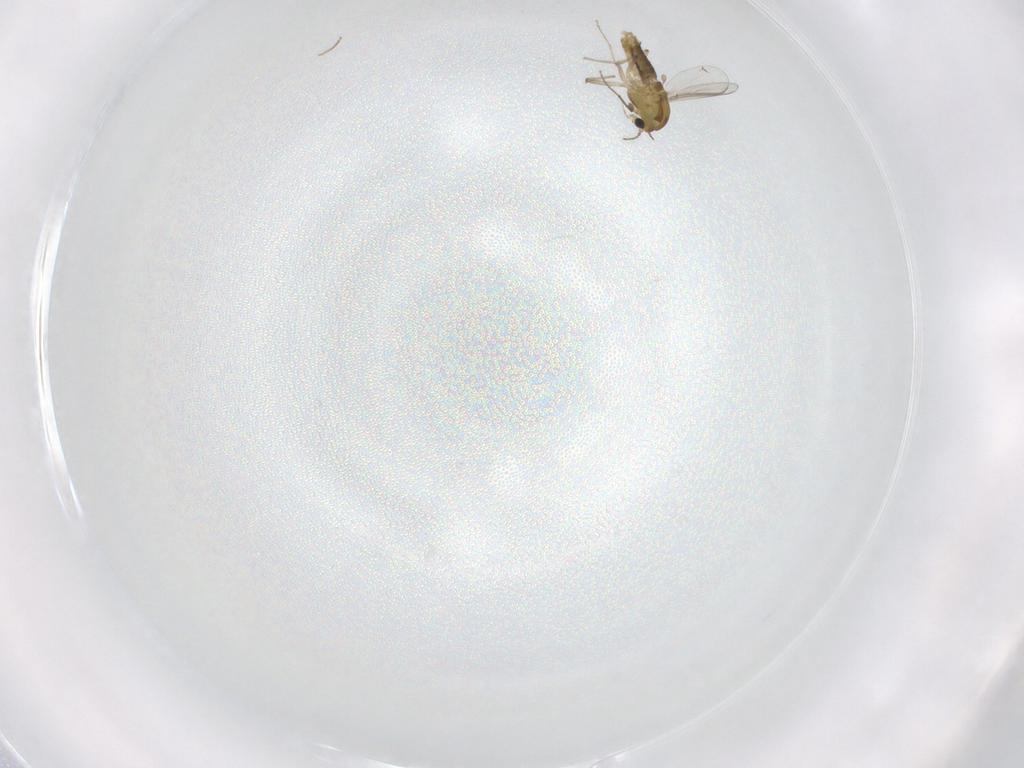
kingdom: Animalia
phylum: Arthropoda
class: Insecta
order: Diptera
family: Chironomidae
